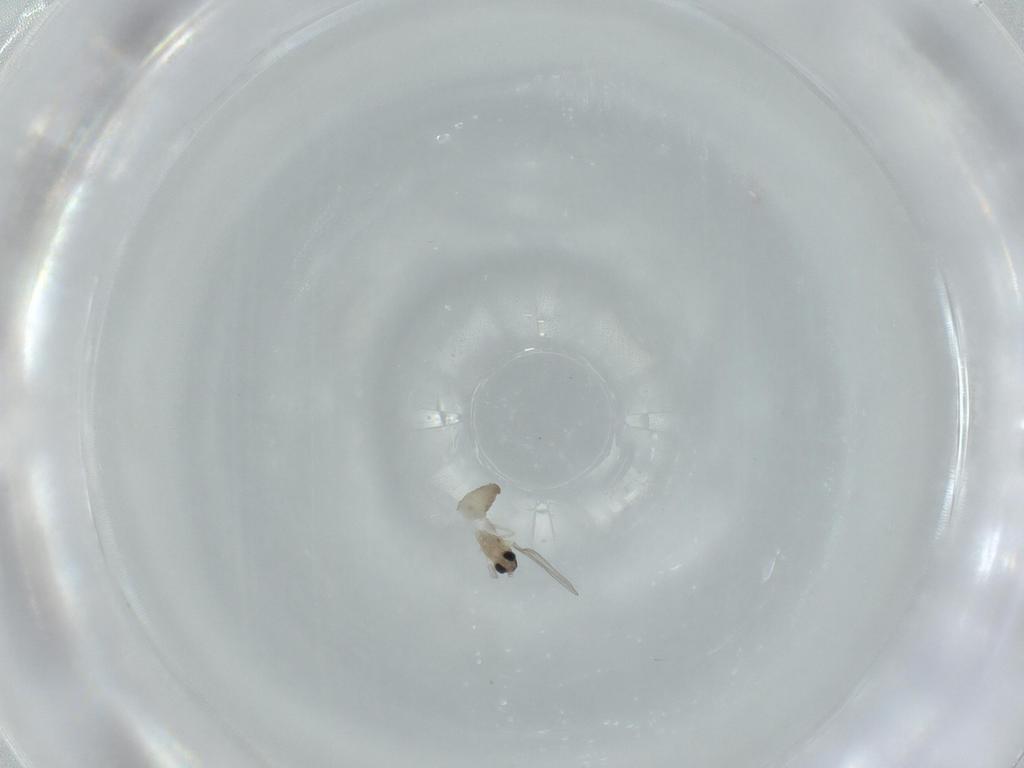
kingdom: Animalia
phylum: Arthropoda
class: Insecta
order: Diptera
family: Cecidomyiidae
